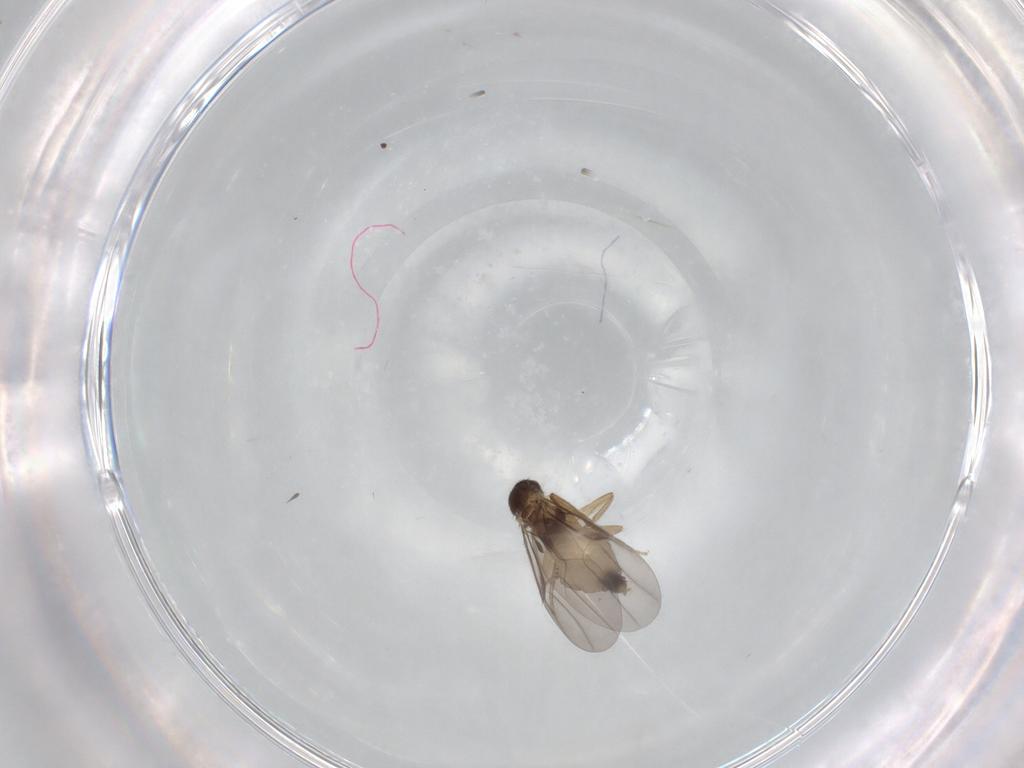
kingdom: Animalia
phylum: Arthropoda
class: Insecta
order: Diptera
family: Phoridae
